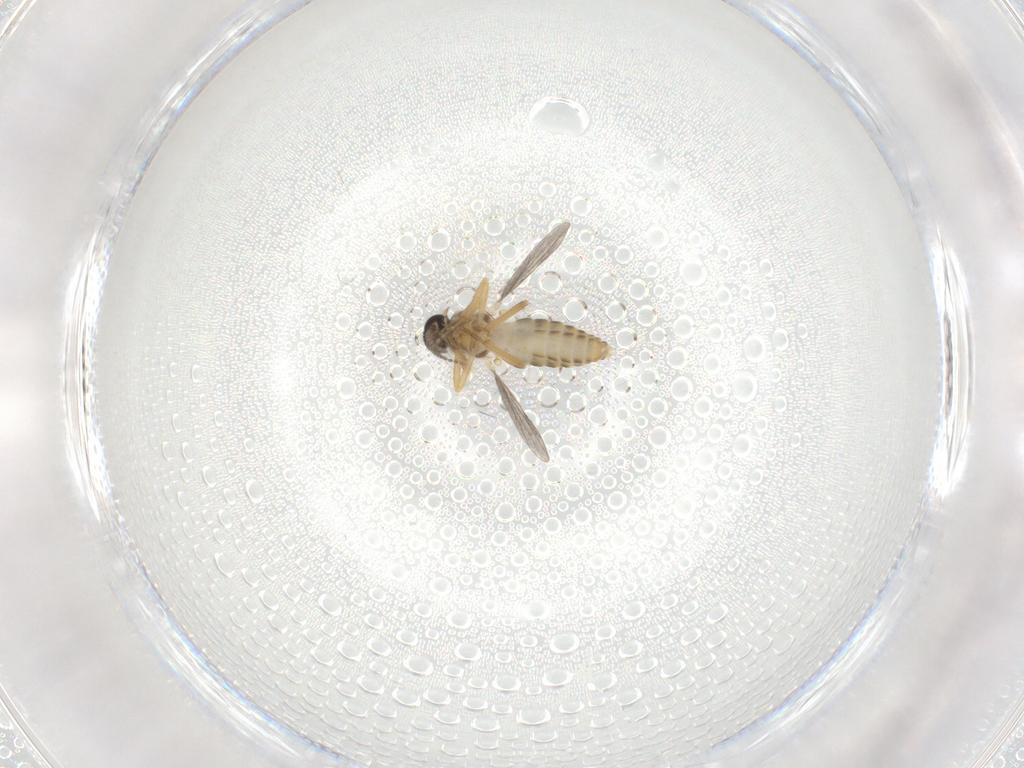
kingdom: Animalia
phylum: Arthropoda
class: Insecta
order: Diptera
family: Ceratopogonidae
